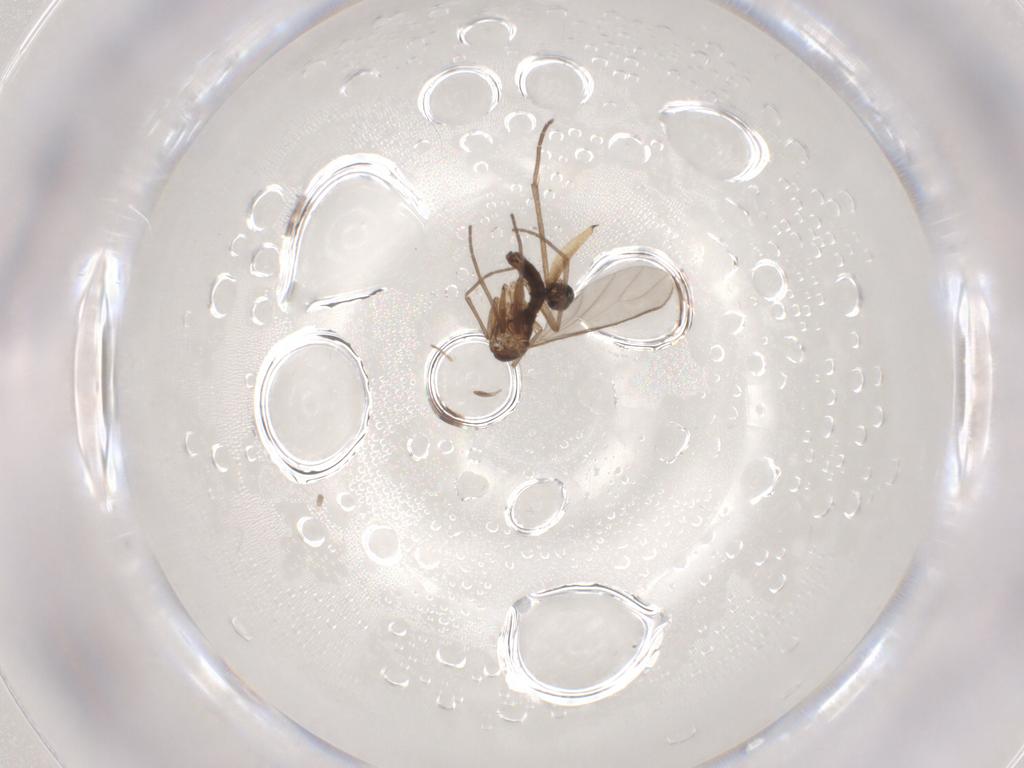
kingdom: Animalia
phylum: Arthropoda
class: Insecta
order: Diptera
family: Sciaridae
